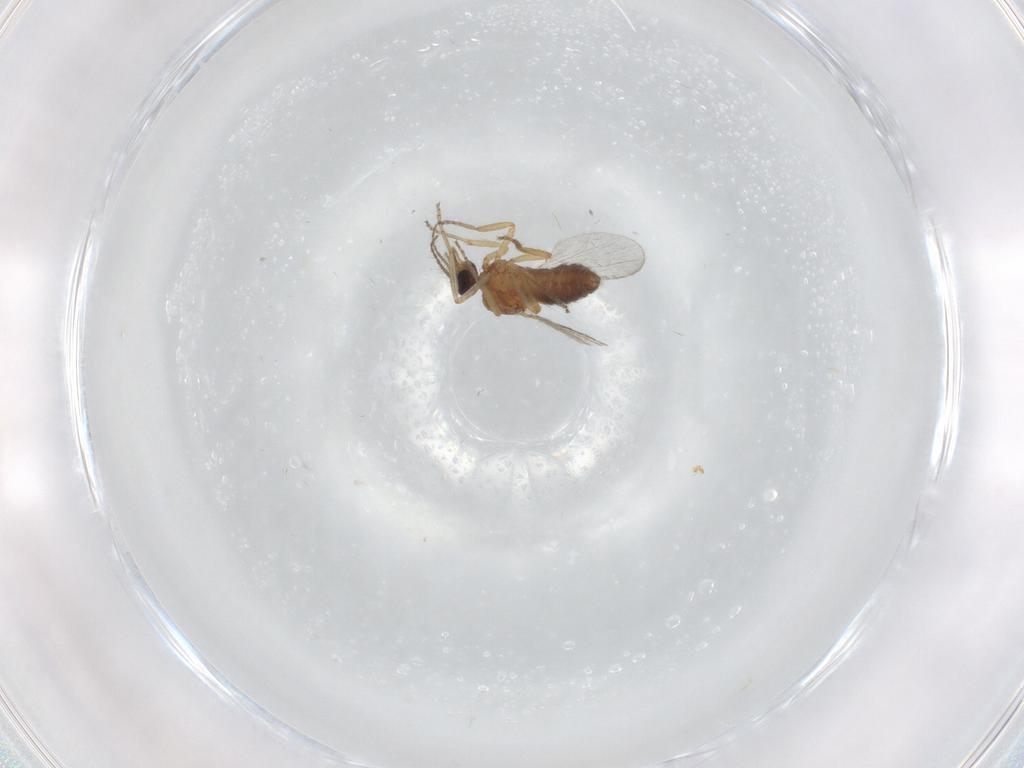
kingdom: Animalia
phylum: Arthropoda
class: Insecta
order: Diptera
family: Ceratopogonidae
